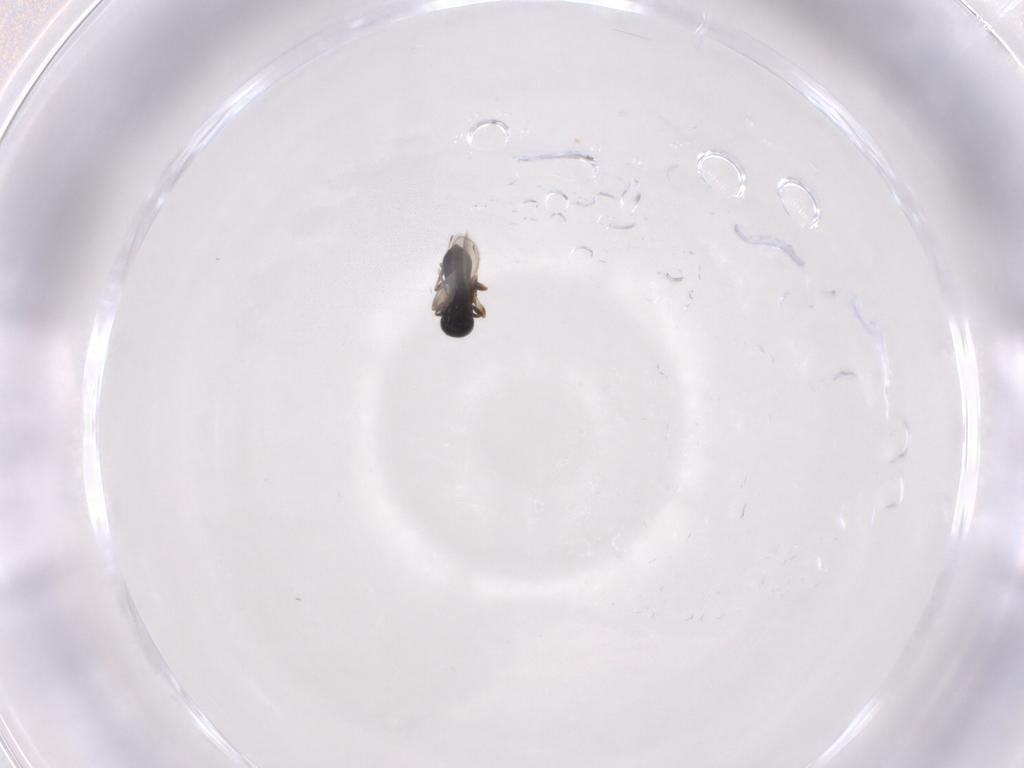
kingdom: Animalia
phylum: Arthropoda
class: Insecta
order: Hymenoptera
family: Scelionidae
